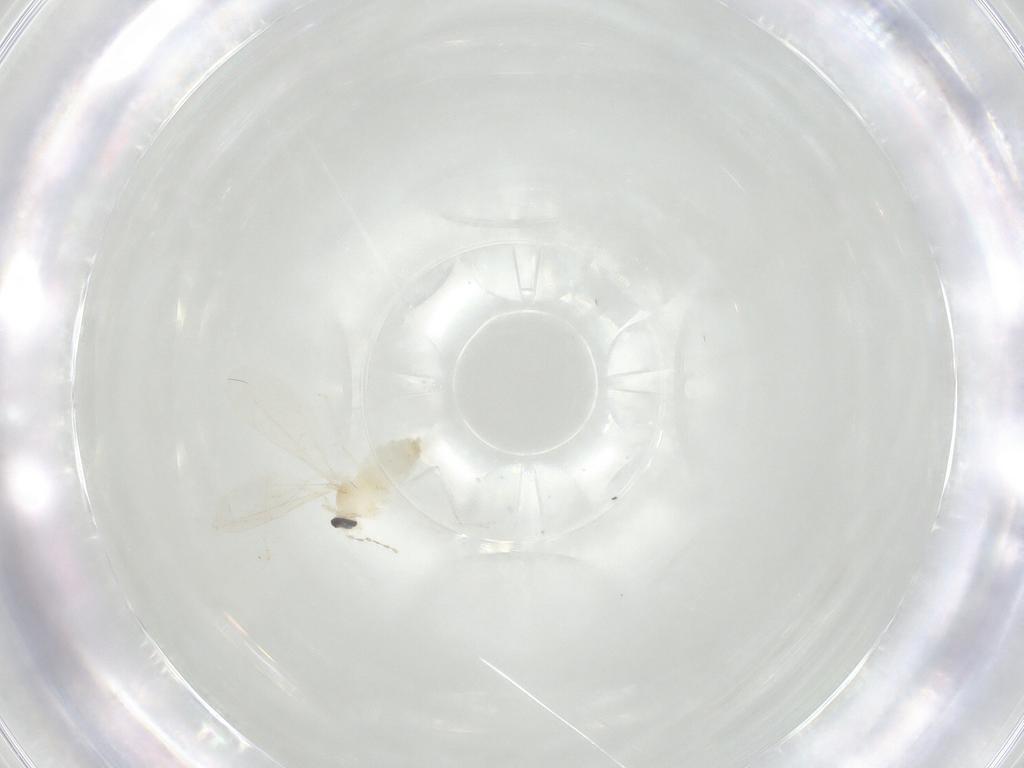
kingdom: Animalia
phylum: Arthropoda
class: Insecta
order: Diptera
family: Cecidomyiidae
